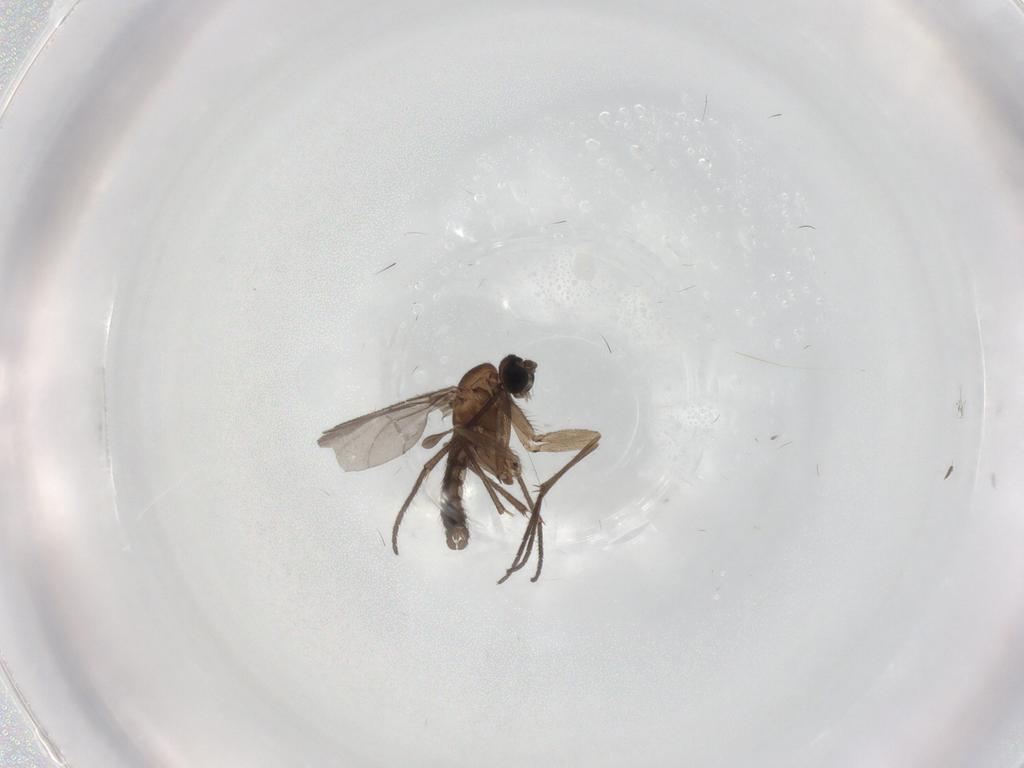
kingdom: Animalia
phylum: Arthropoda
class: Insecta
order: Diptera
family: Sciaridae
